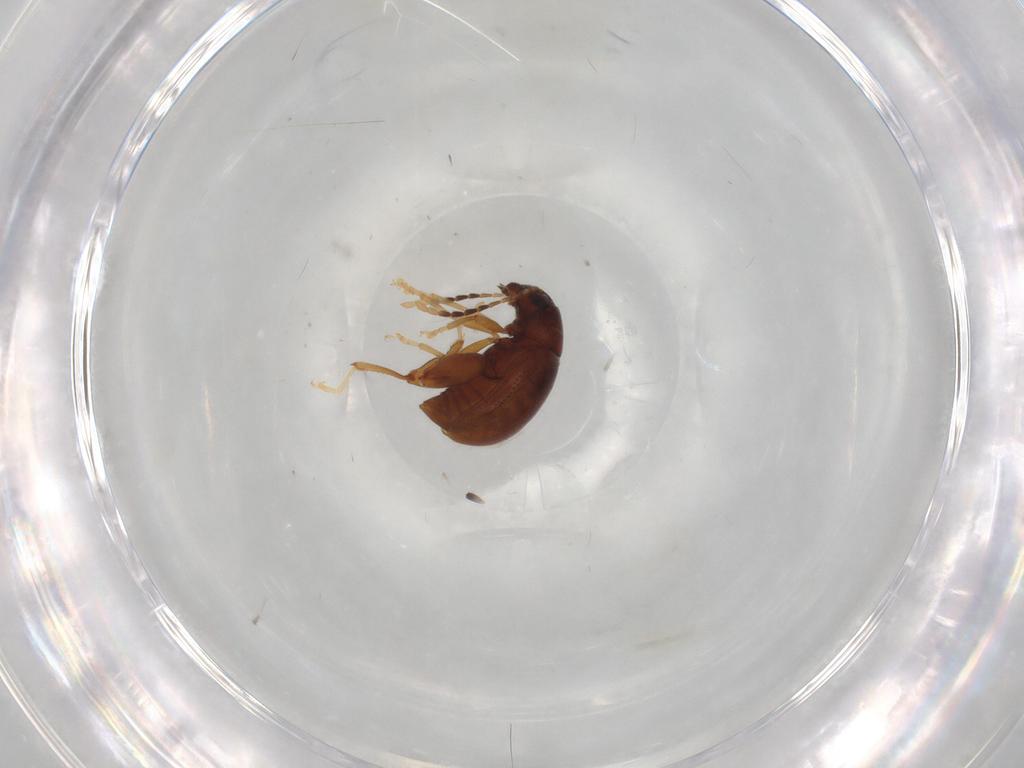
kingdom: Animalia
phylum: Arthropoda
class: Insecta
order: Coleoptera
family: Chrysomelidae
